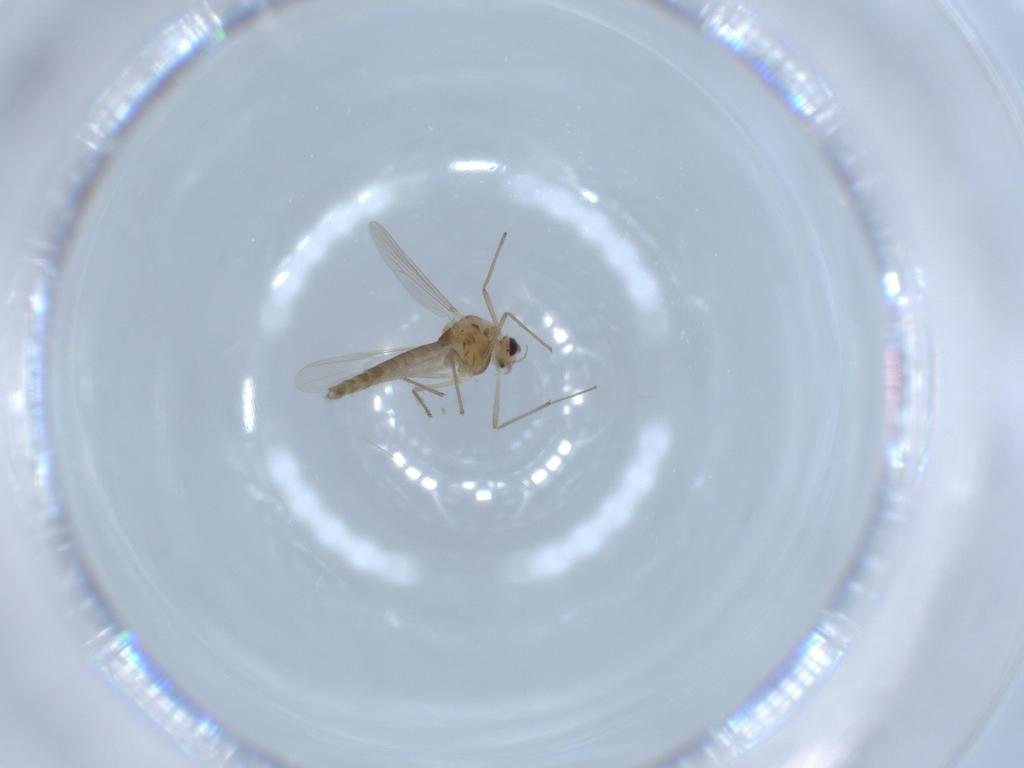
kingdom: Animalia
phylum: Arthropoda
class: Insecta
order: Diptera
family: Chironomidae
